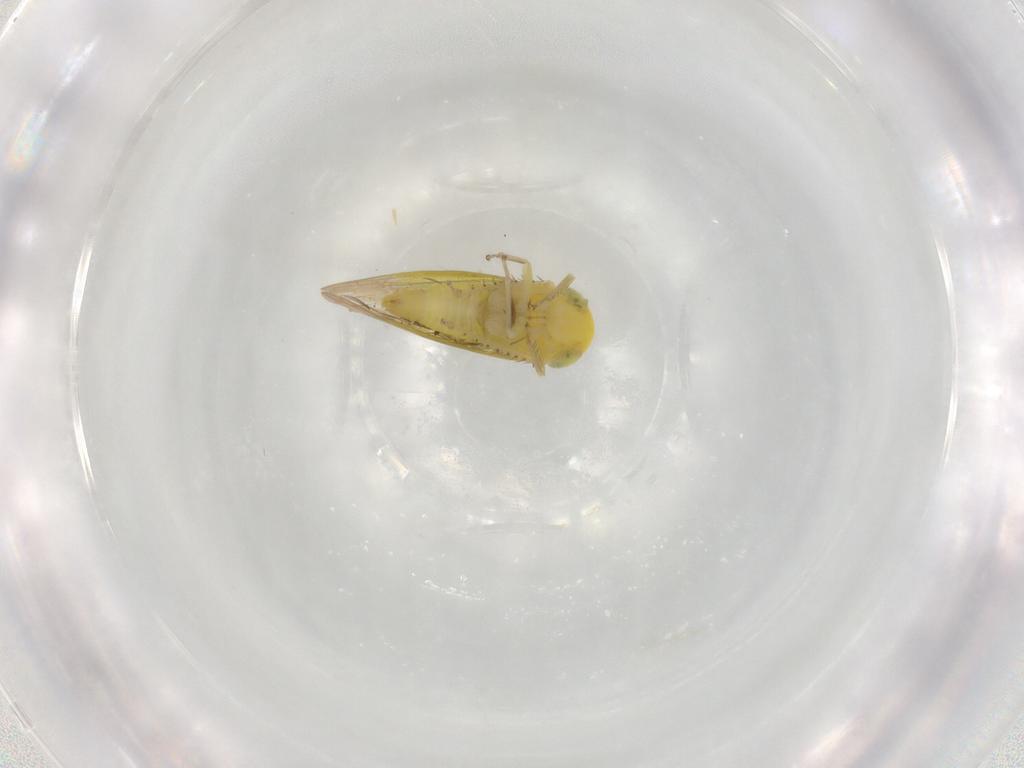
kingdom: Animalia
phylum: Arthropoda
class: Insecta
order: Hemiptera
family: Cicadellidae
